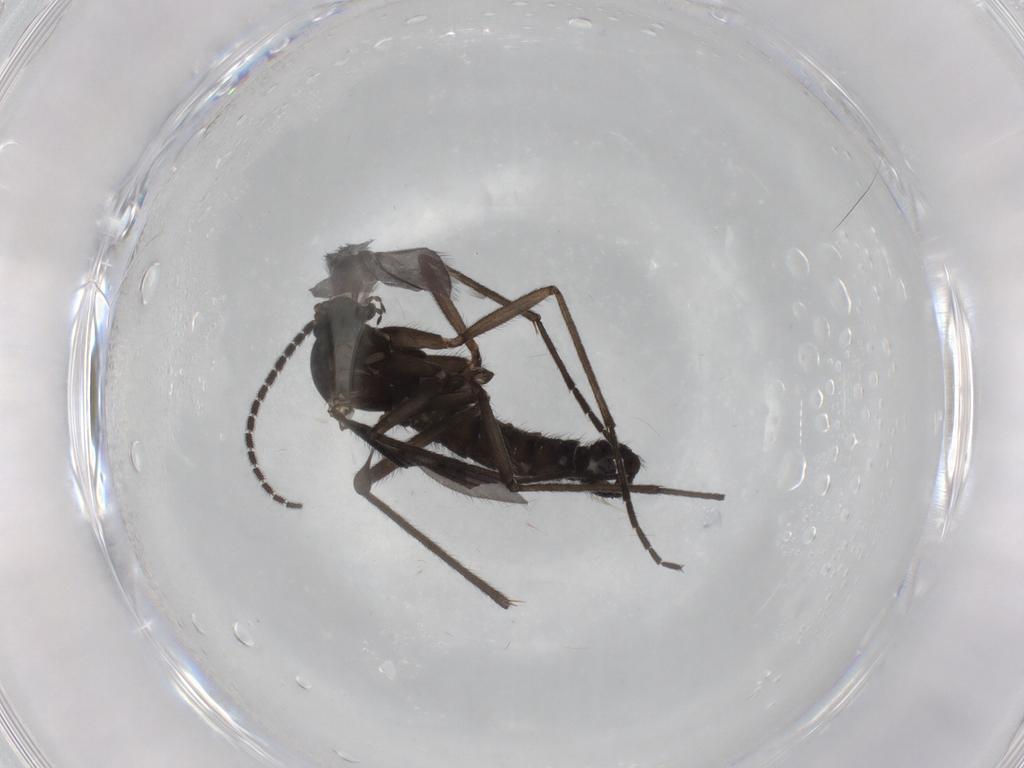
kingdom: Animalia
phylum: Arthropoda
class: Insecta
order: Diptera
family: Sciaridae
